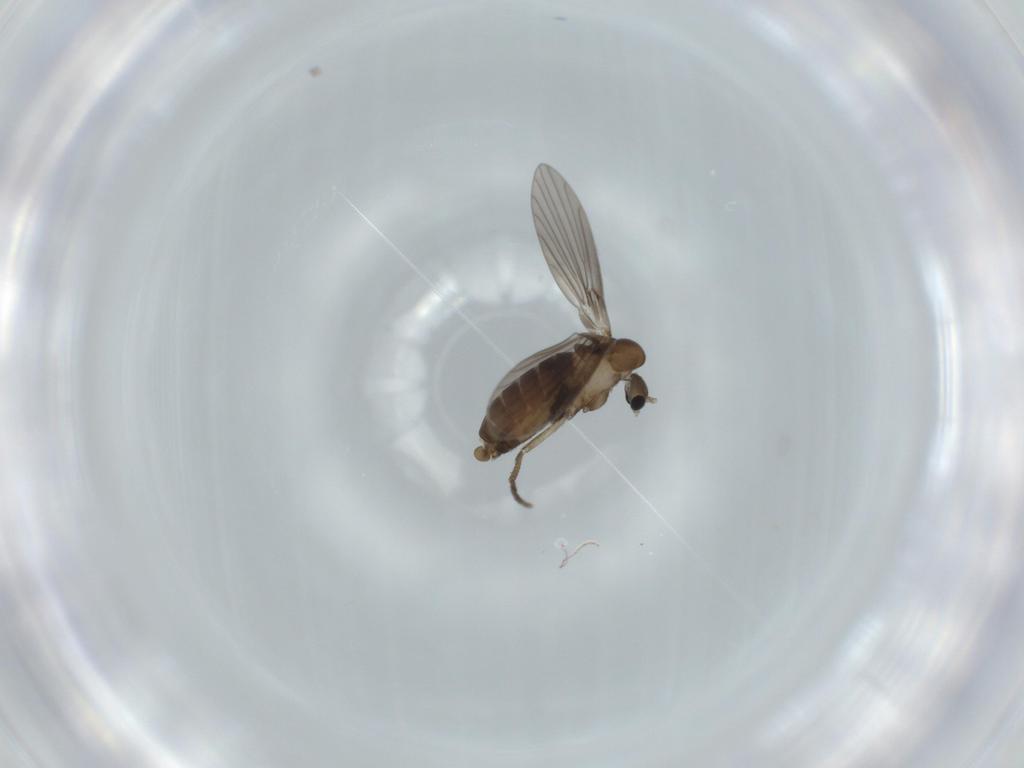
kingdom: Animalia
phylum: Arthropoda
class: Insecta
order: Diptera
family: Psychodidae
